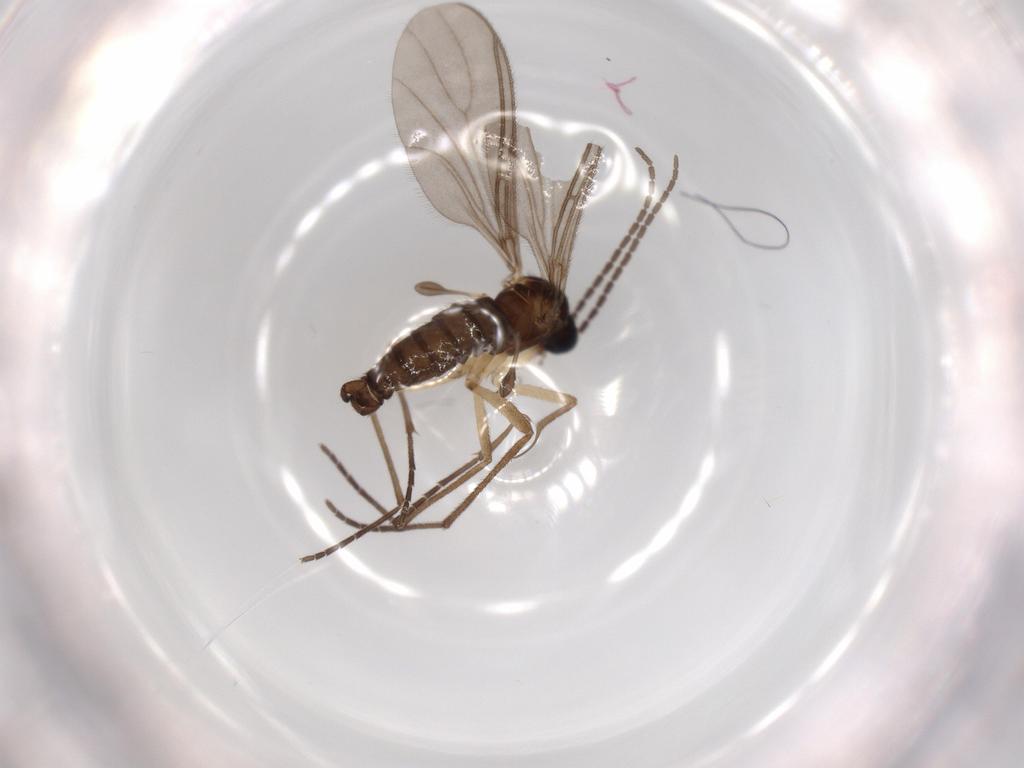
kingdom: Animalia
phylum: Arthropoda
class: Insecta
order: Diptera
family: Sciaridae
